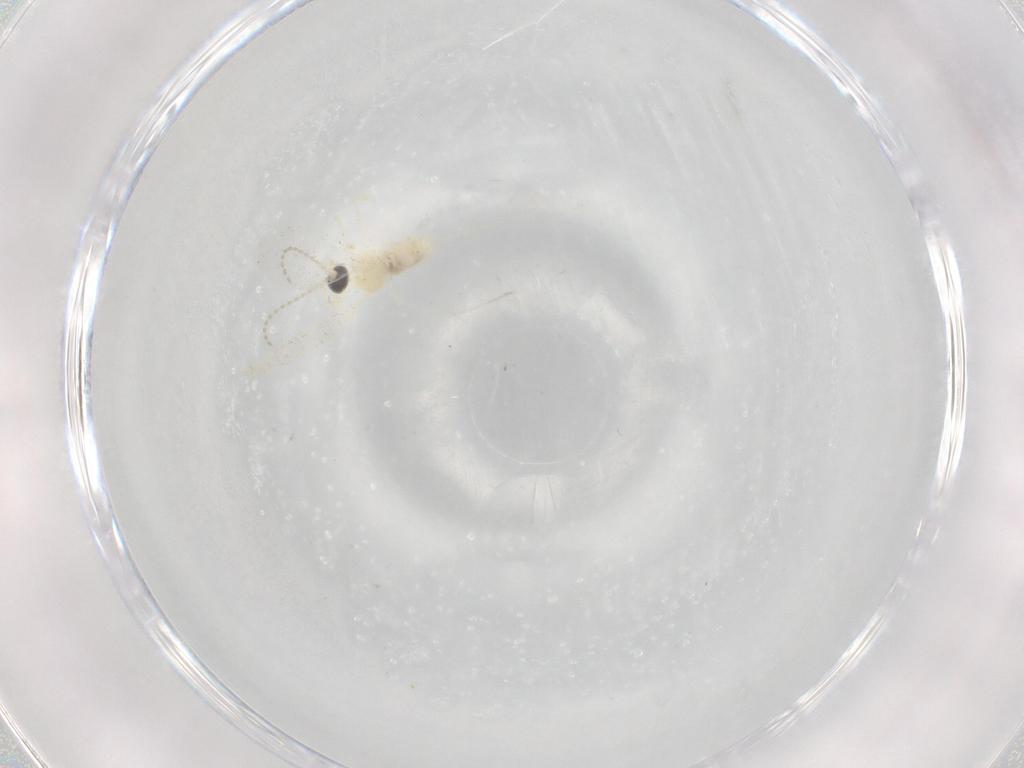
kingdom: Animalia
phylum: Arthropoda
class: Insecta
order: Diptera
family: Cecidomyiidae
